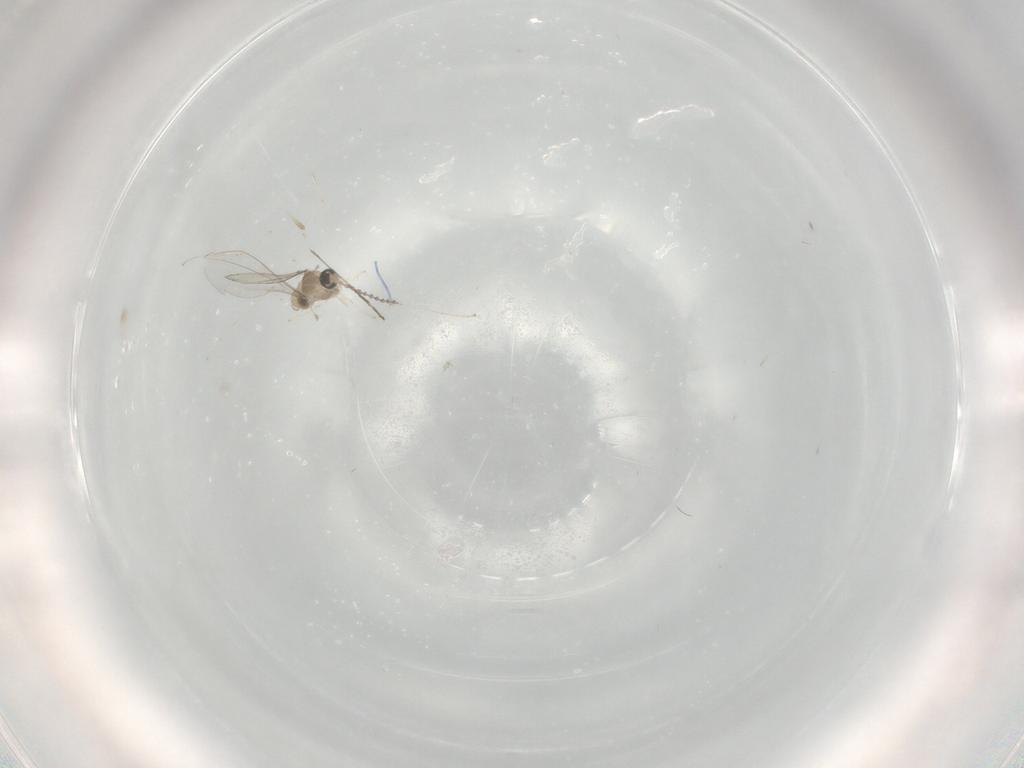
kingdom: Animalia
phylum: Arthropoda
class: Insecta
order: Diptera
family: Cecidomyiidae
